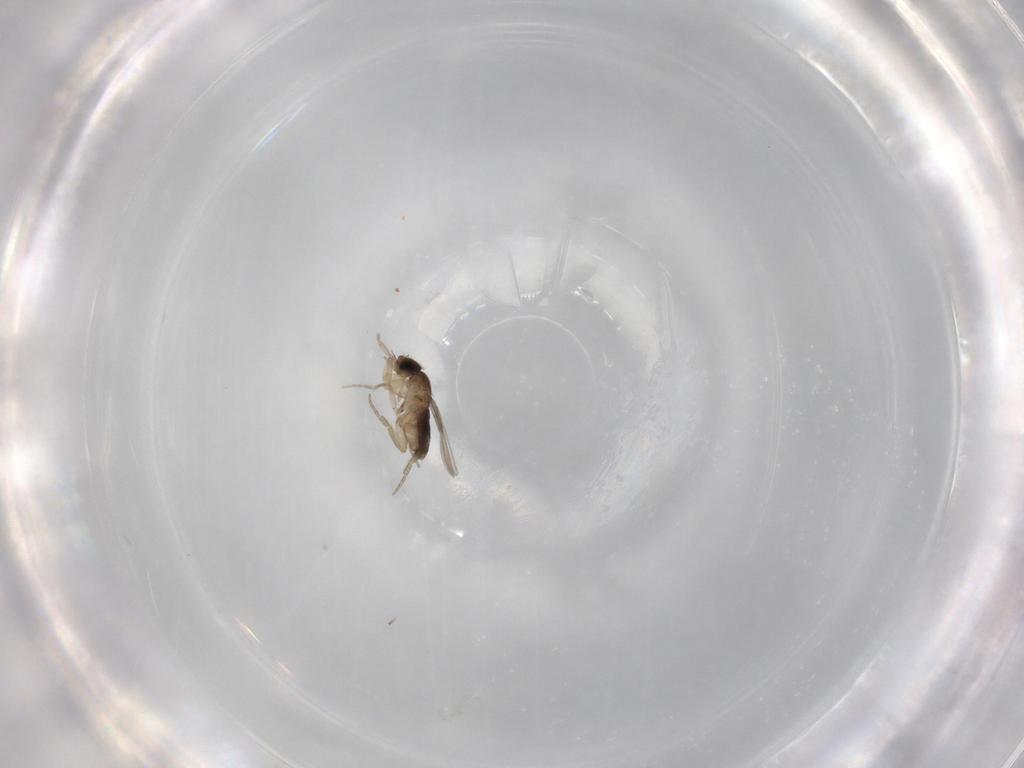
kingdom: Animalia
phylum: Arthropoda
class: Insecta
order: Diptera
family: Phoridae
